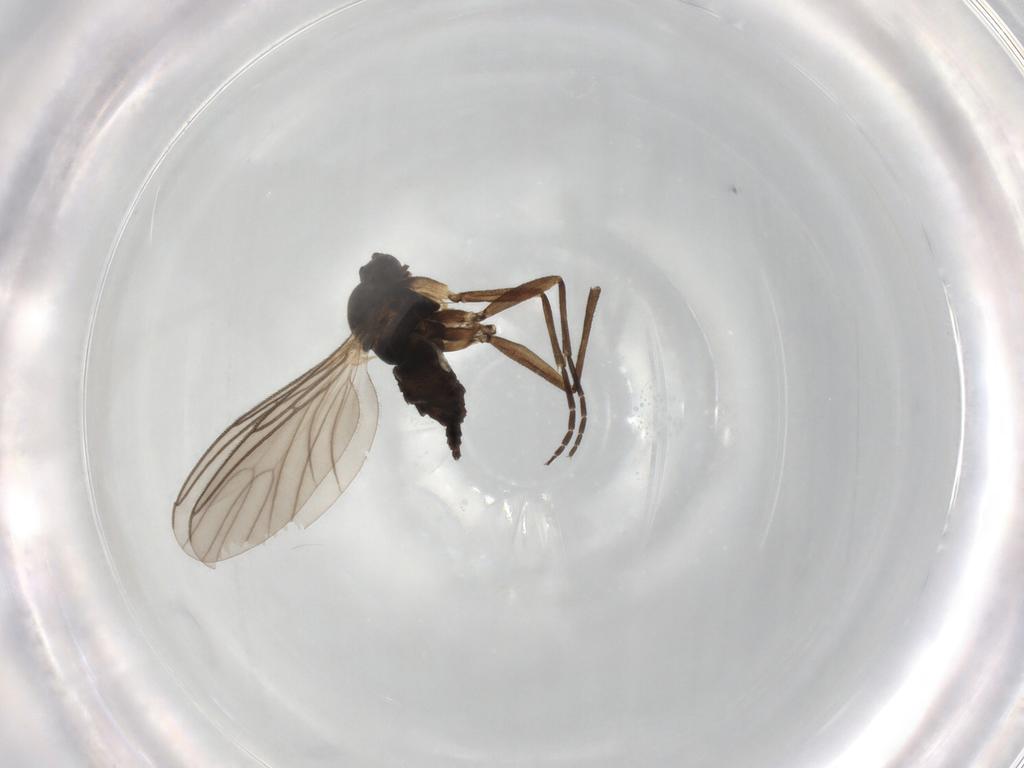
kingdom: Animalia
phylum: Arthropoda
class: Insecta
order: Diptera
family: Sciaridae
